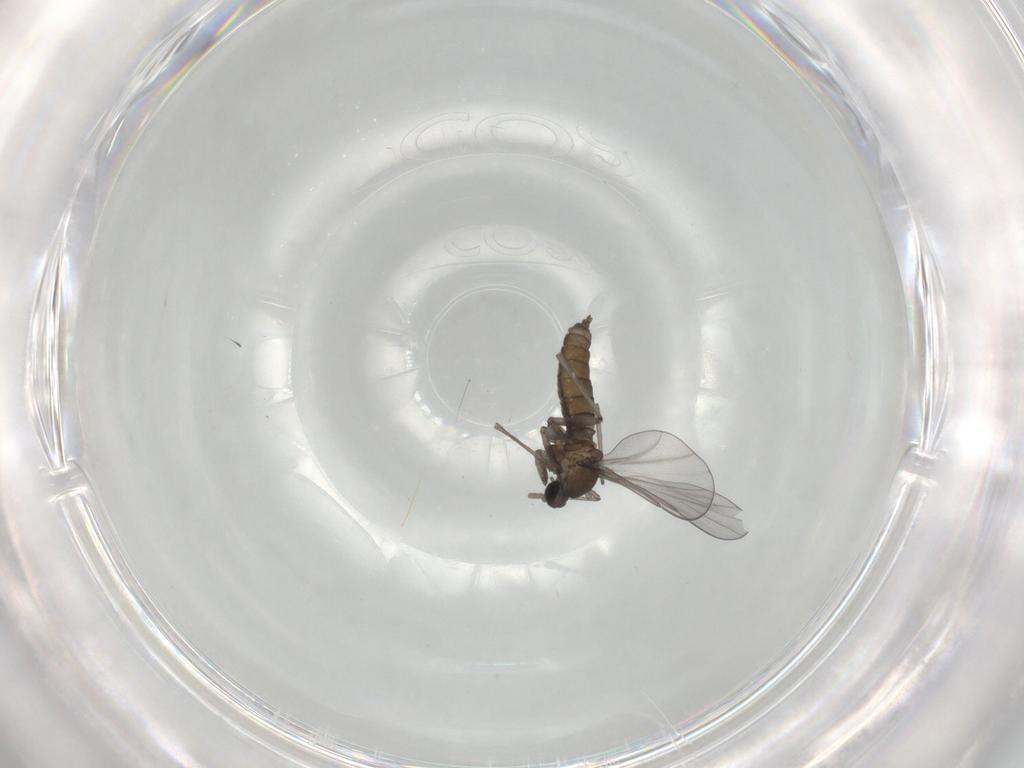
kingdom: Animalia
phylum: Arthropoda
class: Insecta
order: Diptera
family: Cecidomyiidae
